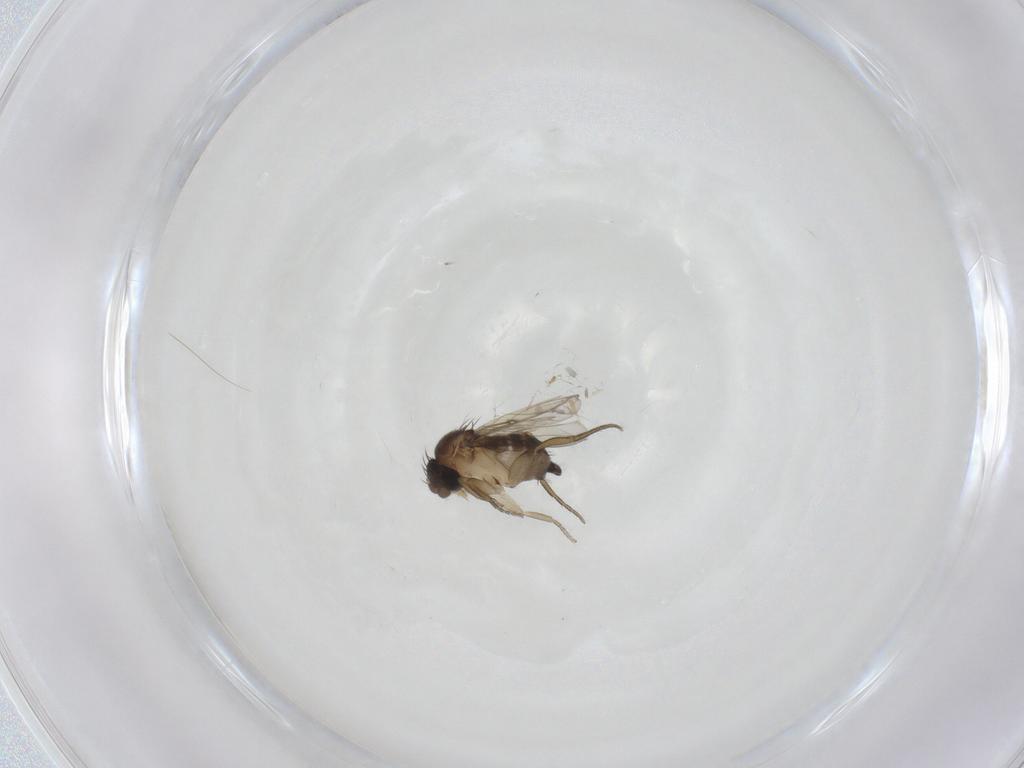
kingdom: Animalia
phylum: Arthropoda
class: Insecta
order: Diptera
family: Phoridae
